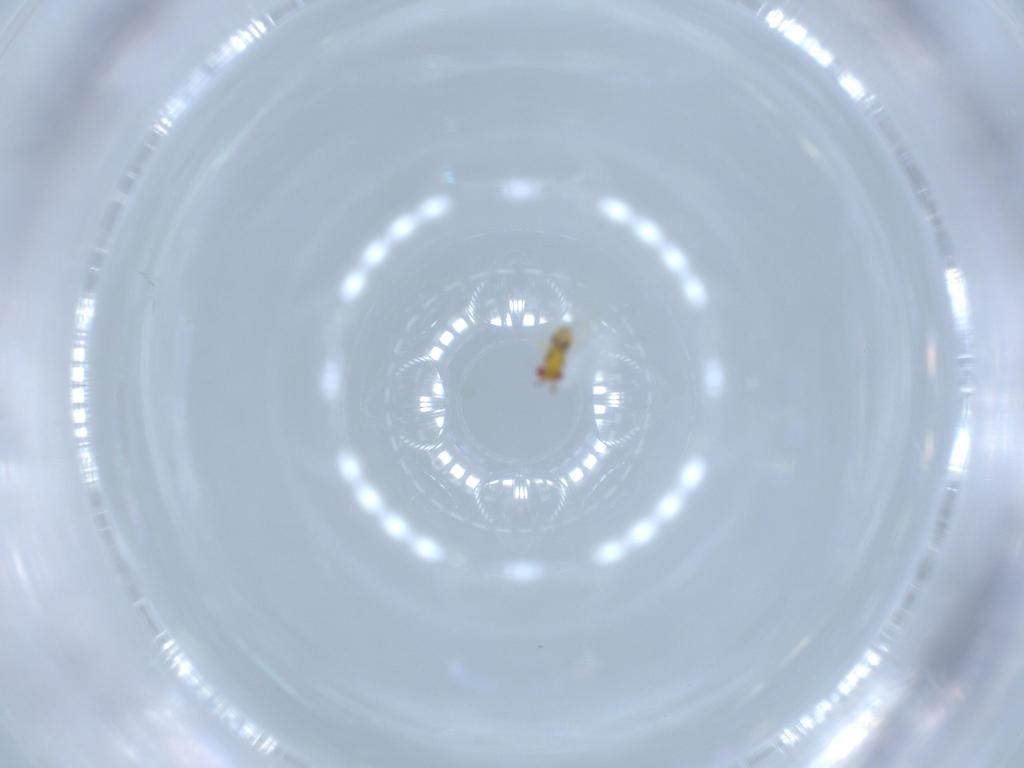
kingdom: Animalia
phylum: Arthropoda
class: Insecta
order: Hymenoptera
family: Trichogrammatidae
